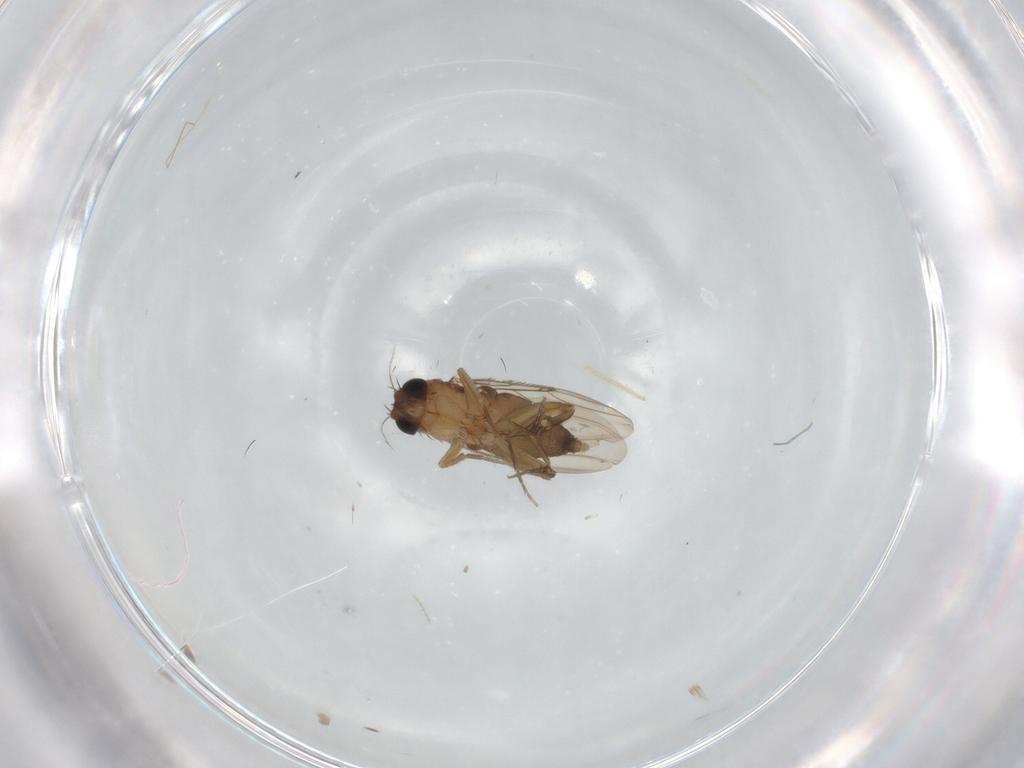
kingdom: Animalia
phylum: Arthropoda
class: Insecta
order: Diptera
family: Phoridae
